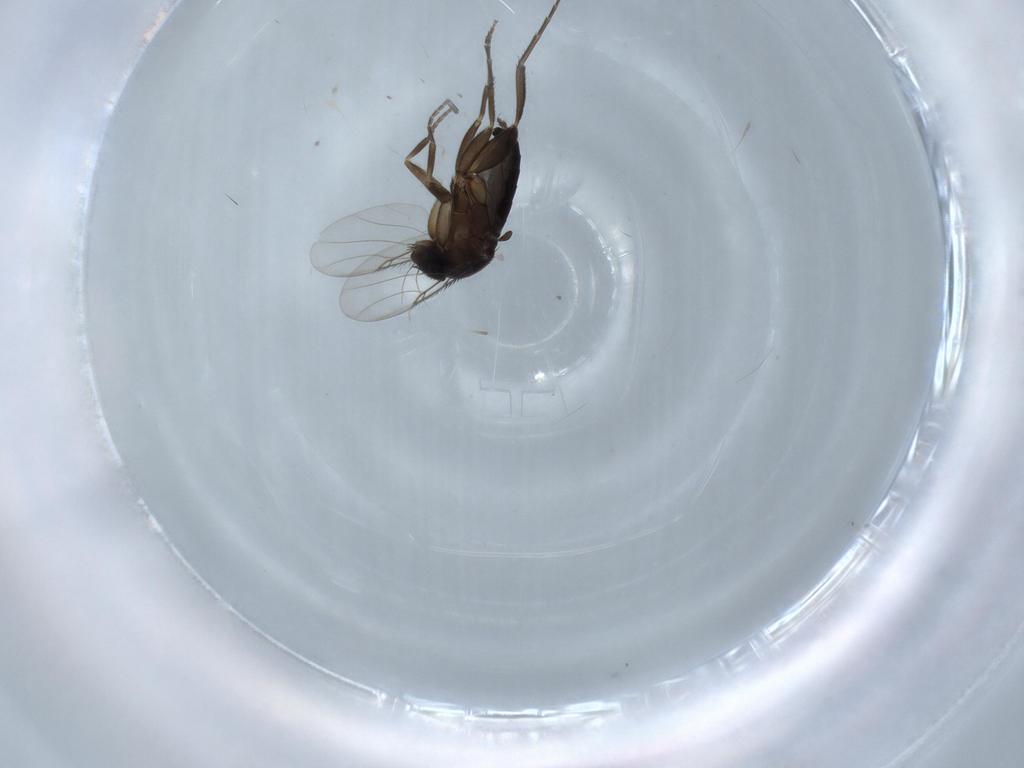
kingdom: Animalia
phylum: Arthropoda
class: Insecta
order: Diptera
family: Phoridae
